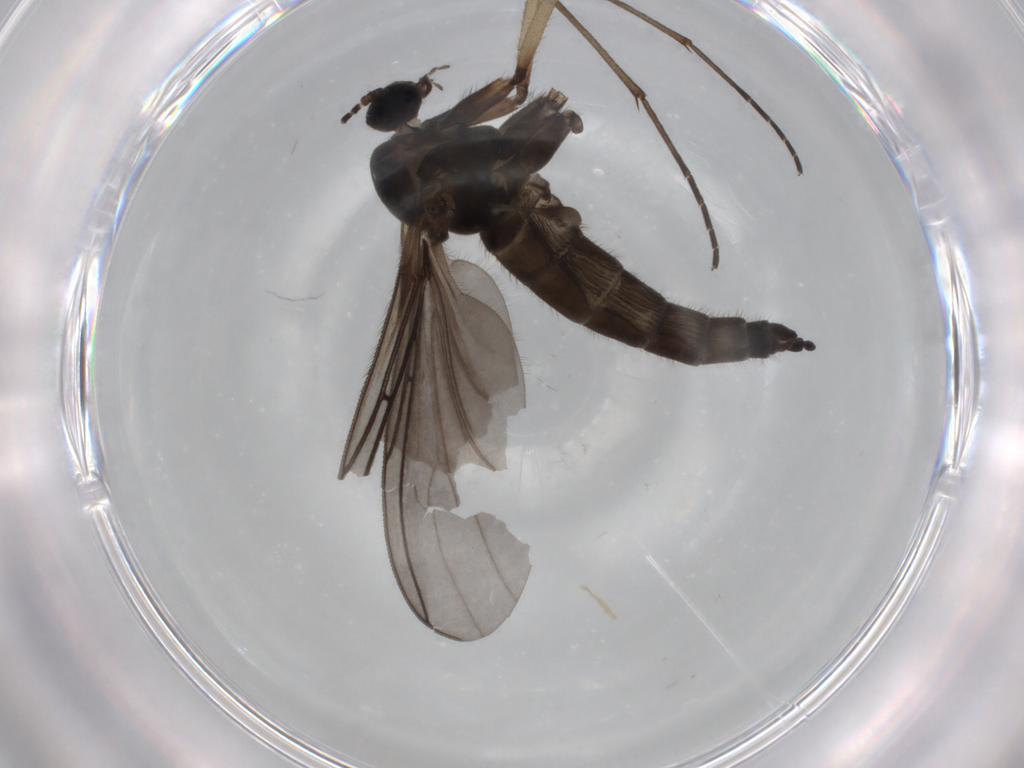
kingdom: Animalia
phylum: Arthropoda
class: Insecta
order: Diptera
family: Sciaridae
